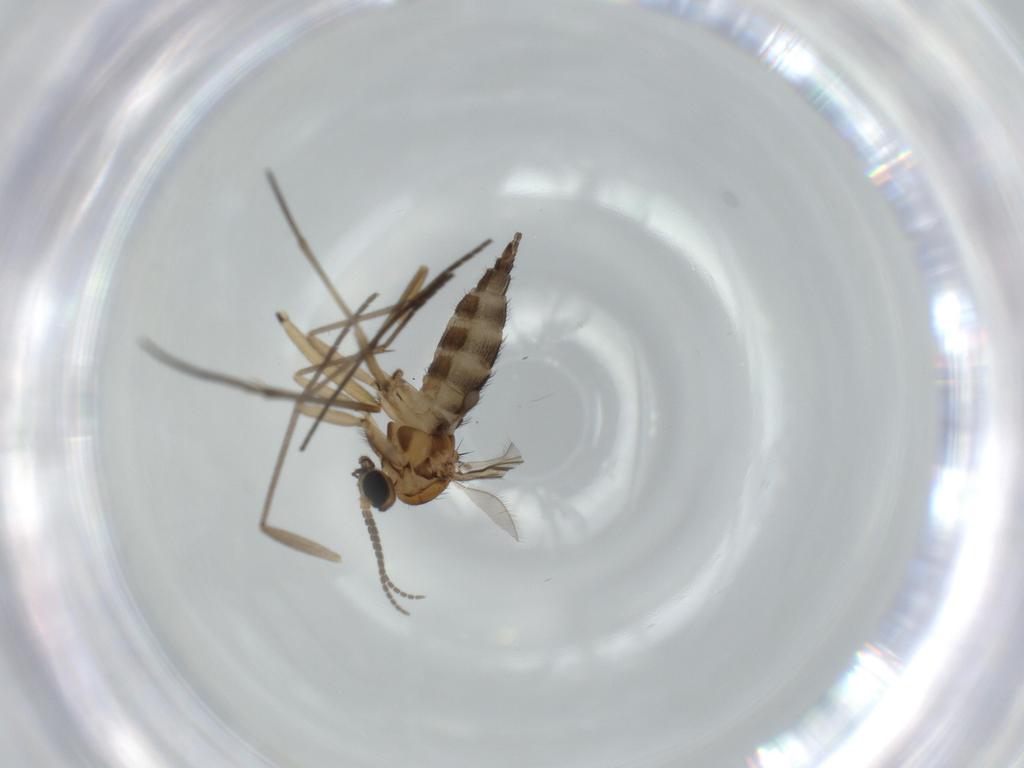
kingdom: Animalia
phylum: Arthropoda
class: Insecta
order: Diptera
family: Sciaridae
